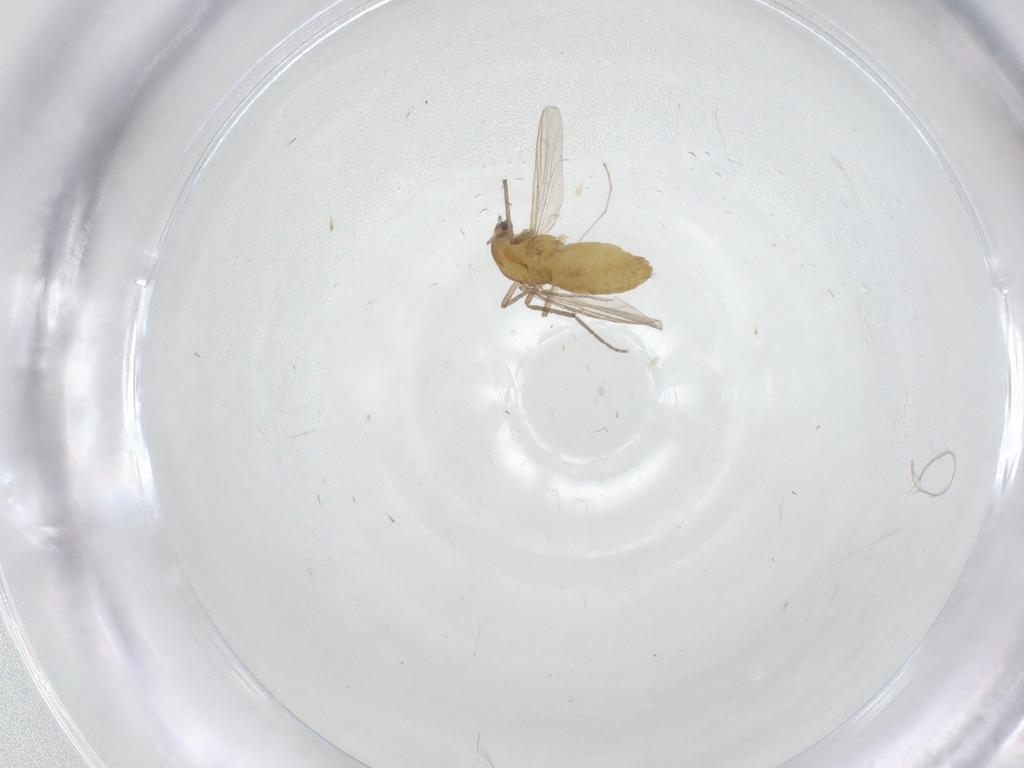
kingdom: Animalia
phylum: Arthropoda
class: Insecta
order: Diptera
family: Chironomidae
